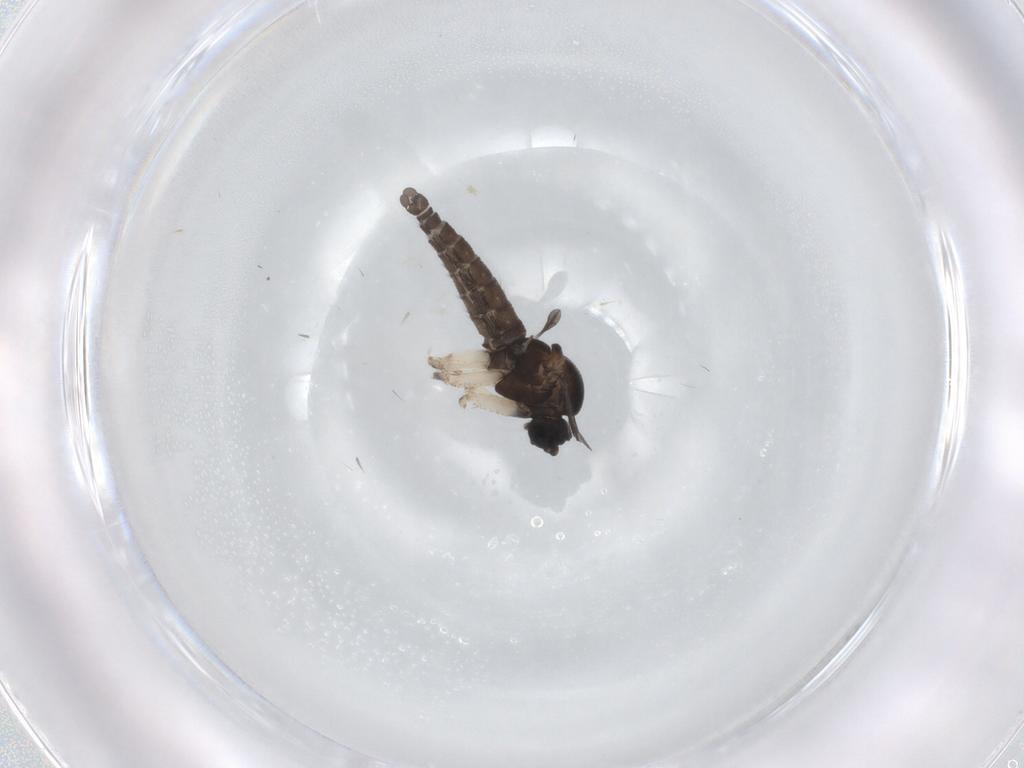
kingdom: Animalia
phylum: Arthropoda
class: Insecta
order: Diptera
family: Sciaridae
